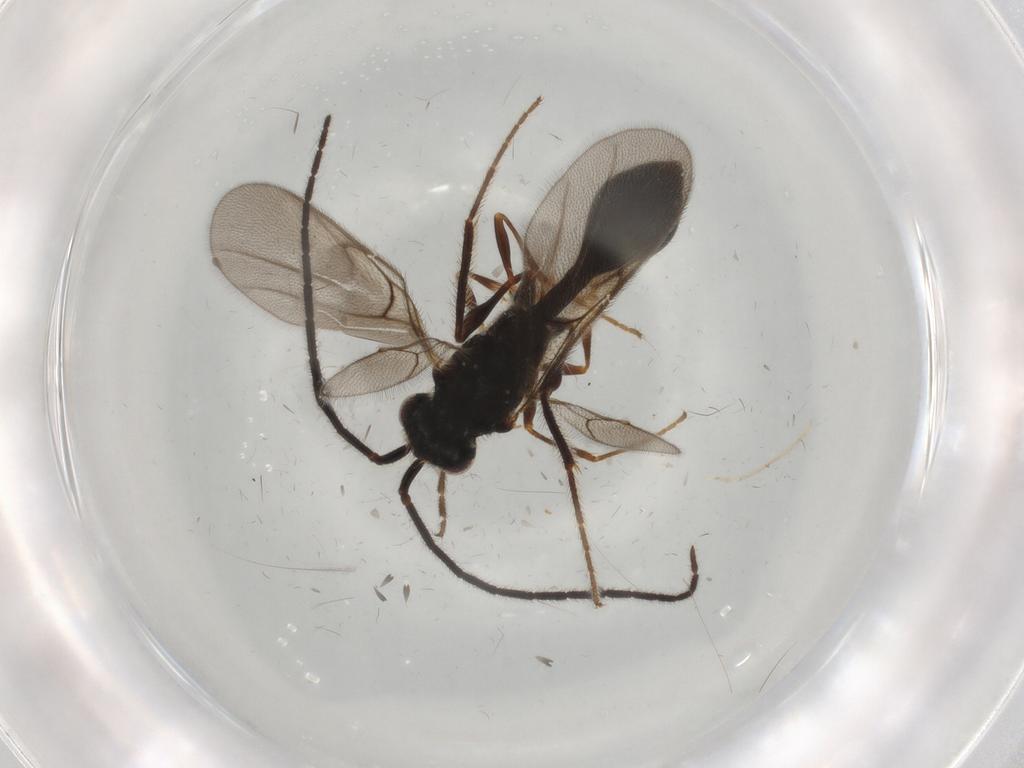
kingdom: Animalia
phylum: Arthropoda
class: Insecta
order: Hymenoptera
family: Diapriidae
